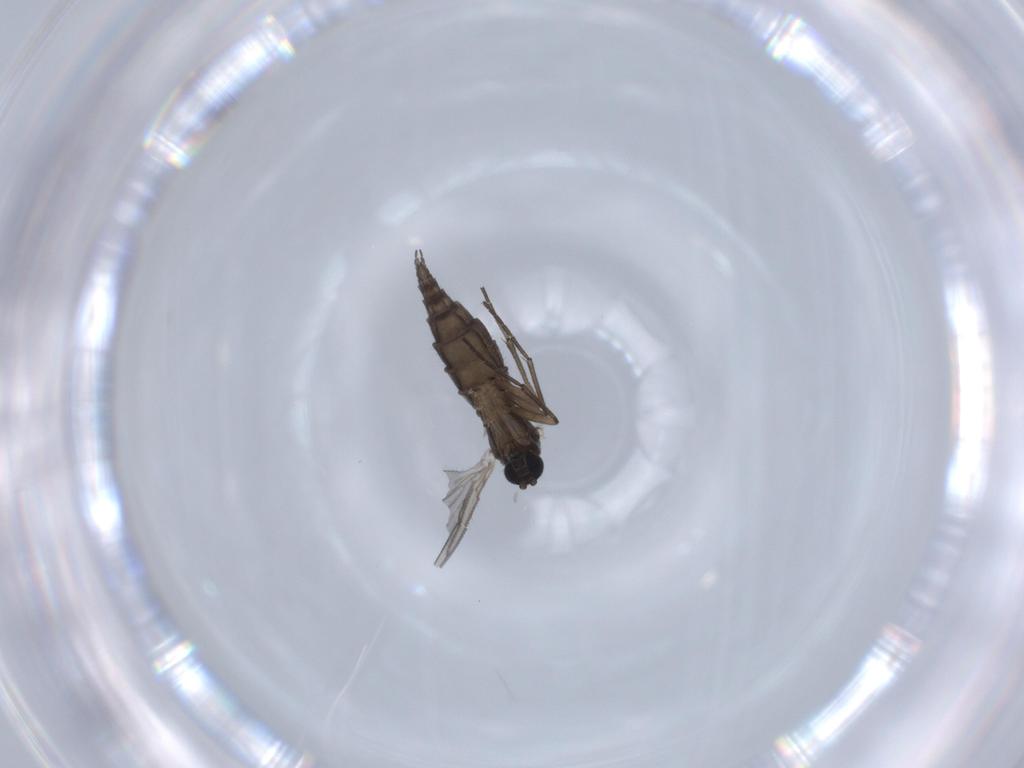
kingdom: Animalia
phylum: Arthropoda
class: Insecta
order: Diptera
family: Sciaridae
